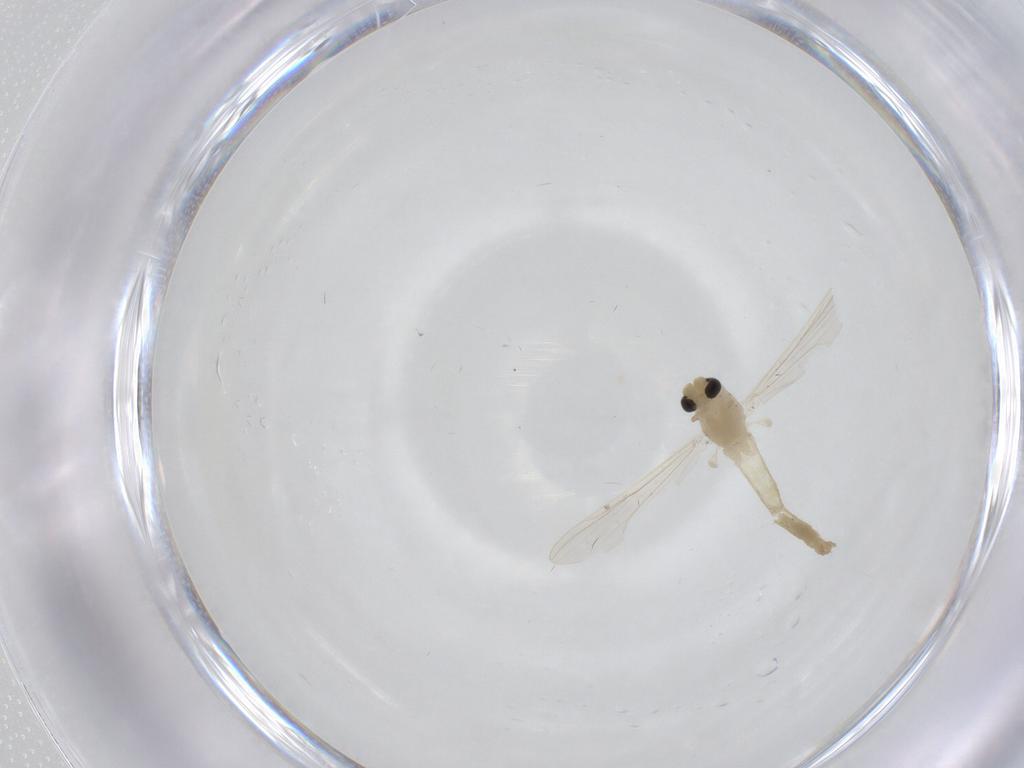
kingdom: Animalia
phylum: Arthropoda
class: Insecta
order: Diptera
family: Chironomidae
